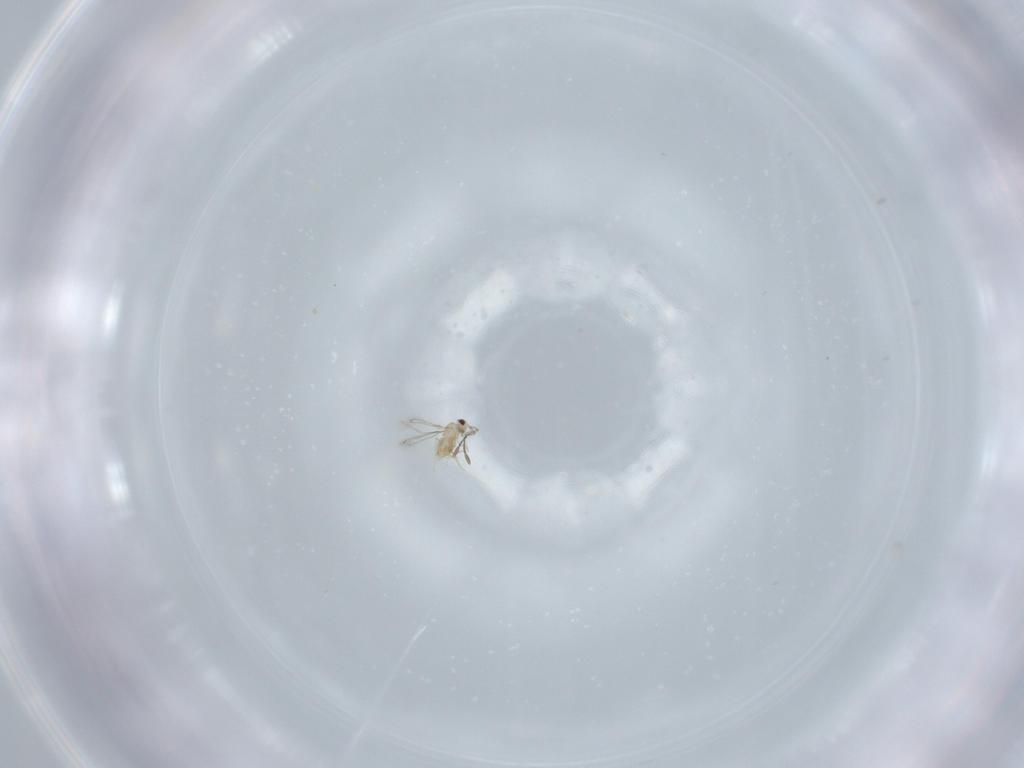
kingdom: Animalia
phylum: Arthropoda
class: Insecta
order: Hymenoptera
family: Mymaridae
